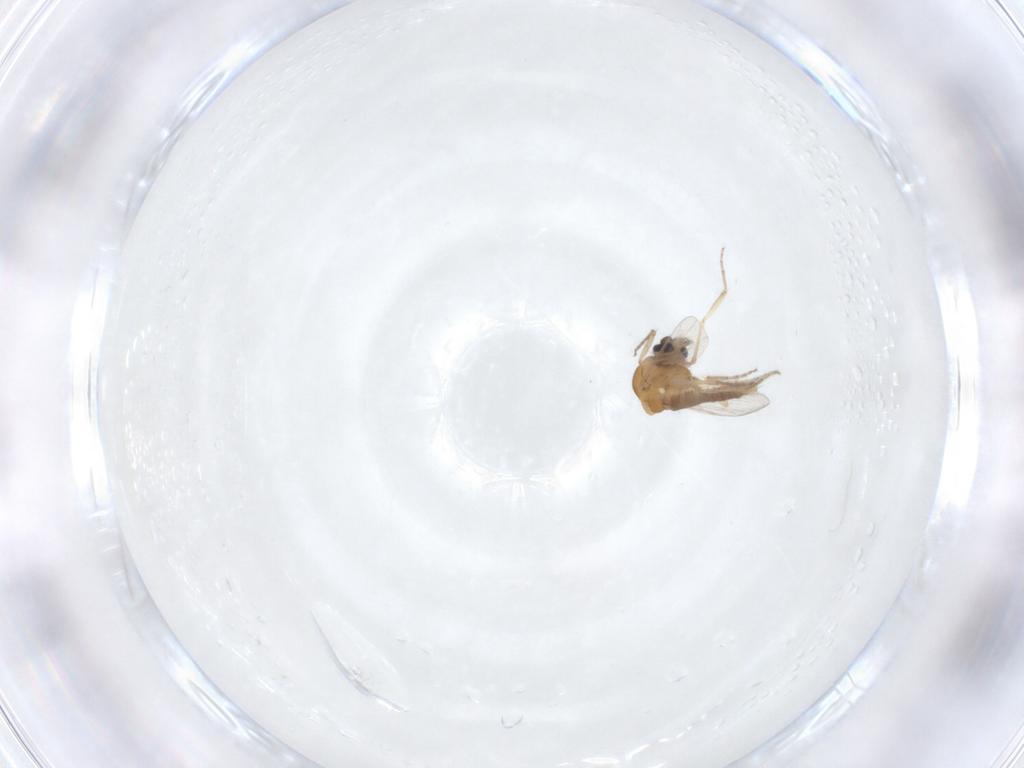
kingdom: Animalia
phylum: Arthropoda
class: Insecta
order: Diptera
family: Ceratopogonidae
